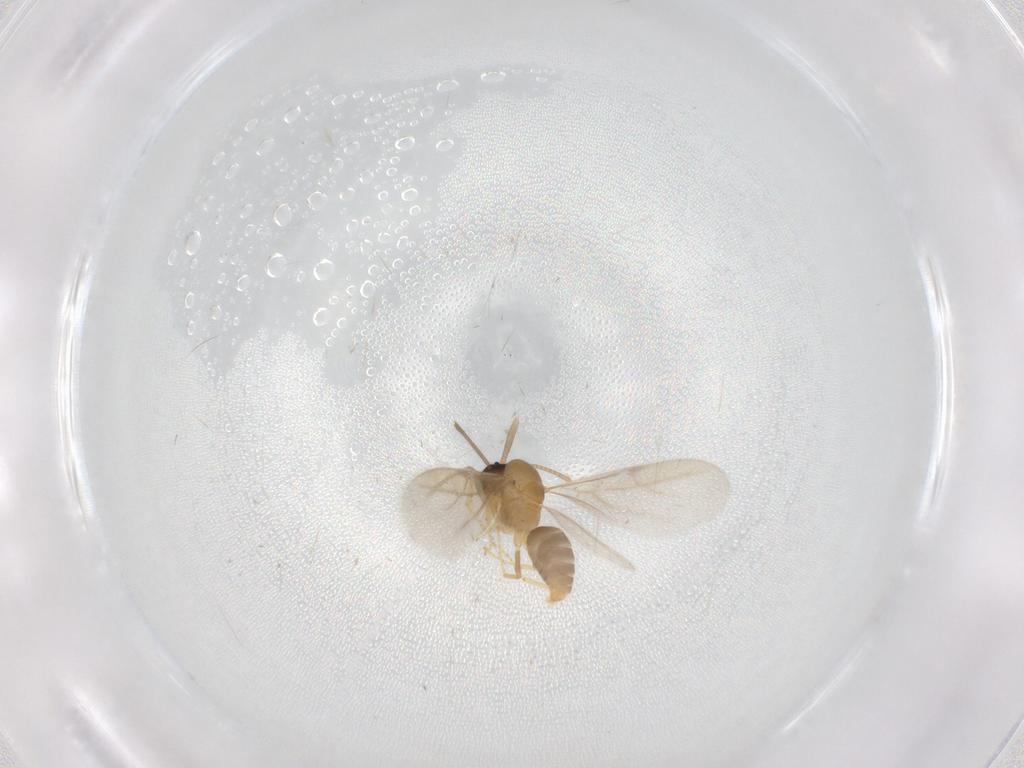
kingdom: Animalia
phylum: Arthropoda
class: Insecta
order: Hymenoptera
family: Formicidae
